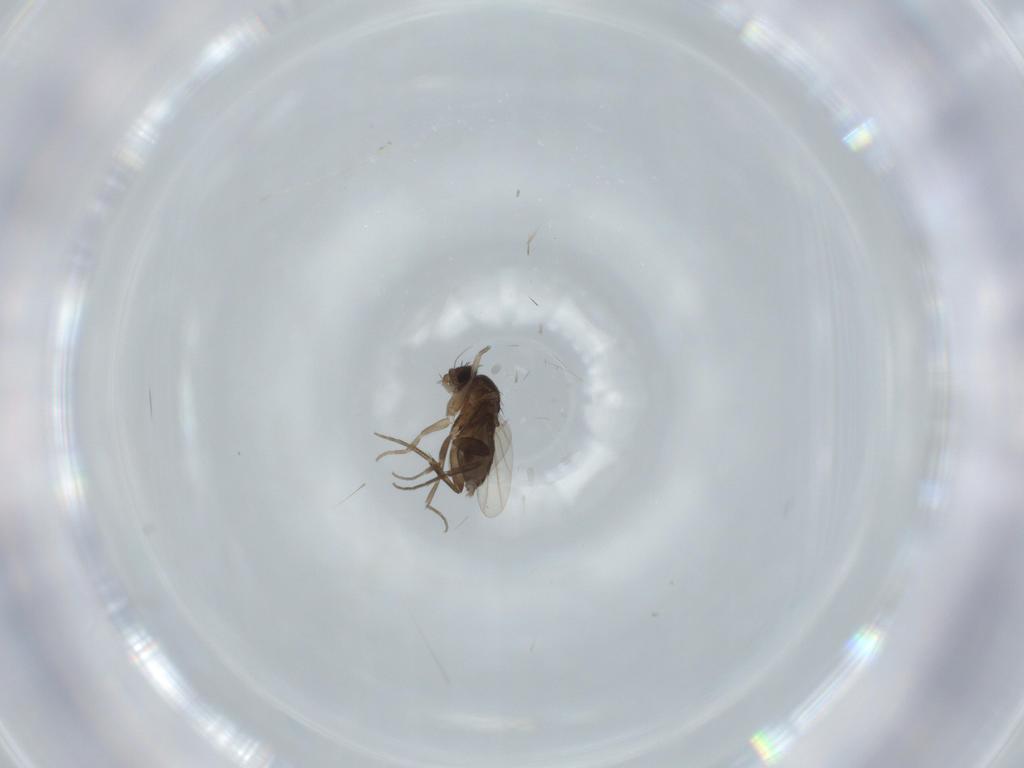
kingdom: Animalia
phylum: Arthropoda
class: Insecta
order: Diptera
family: Phoridae
